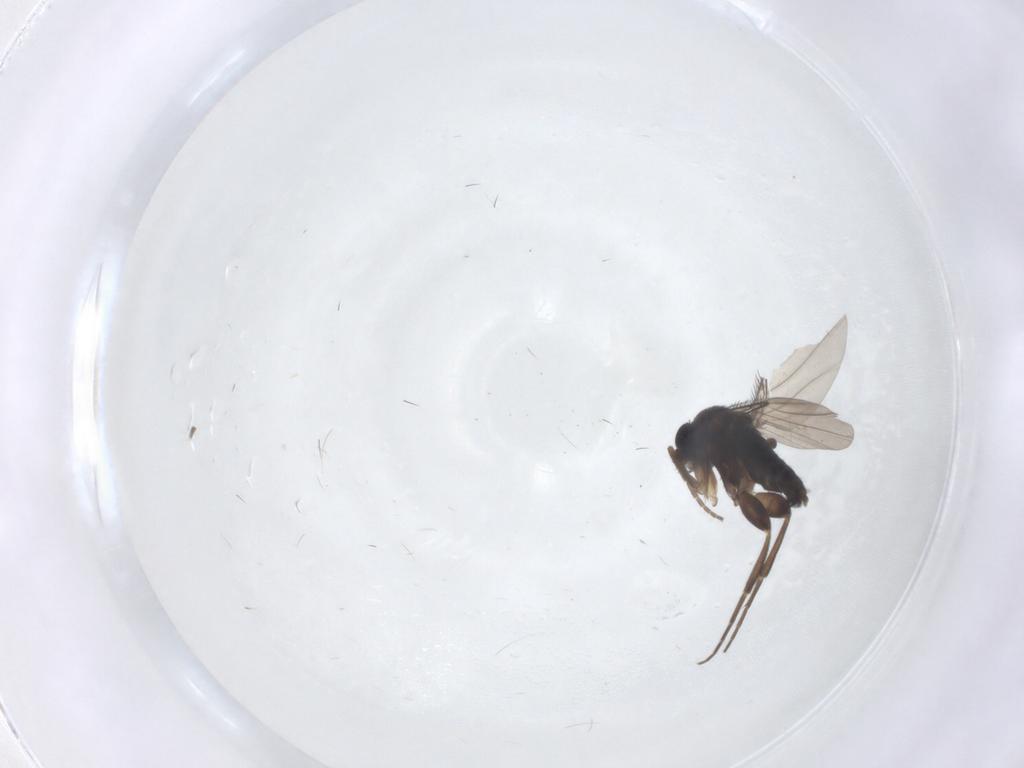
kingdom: Animalia
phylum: Arthropoda
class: Insecta
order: Diptera
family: Phoridae
